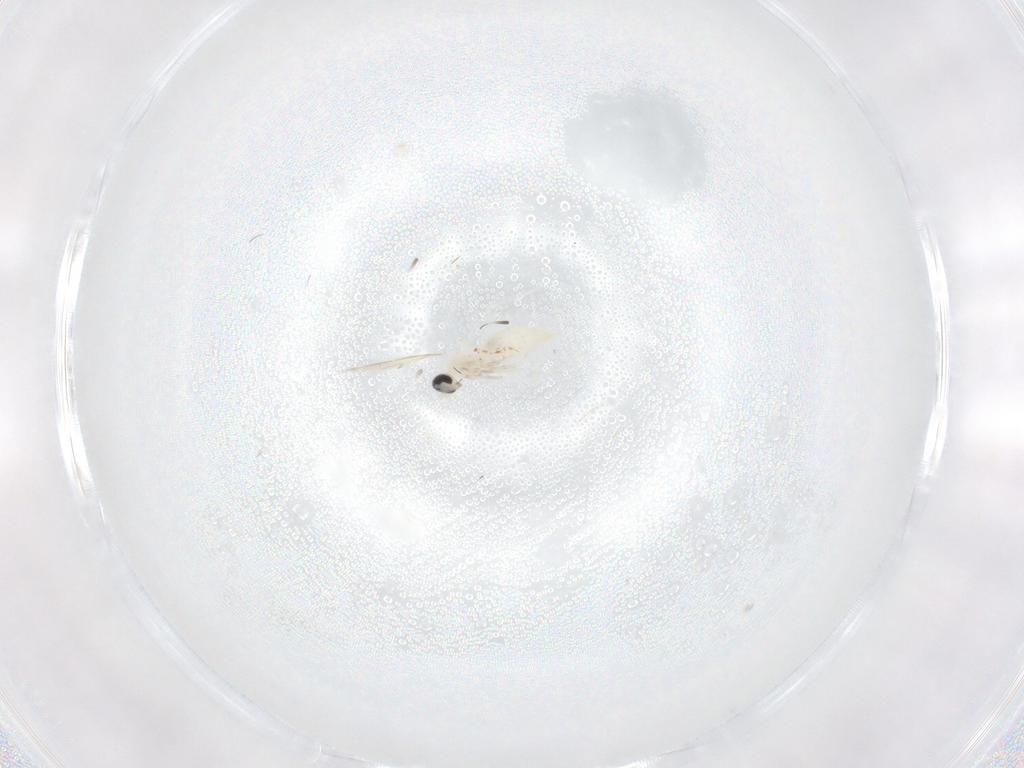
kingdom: Animalia
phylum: Arthropoda
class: Insecta
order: Diptera
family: Cecidomyiidae
